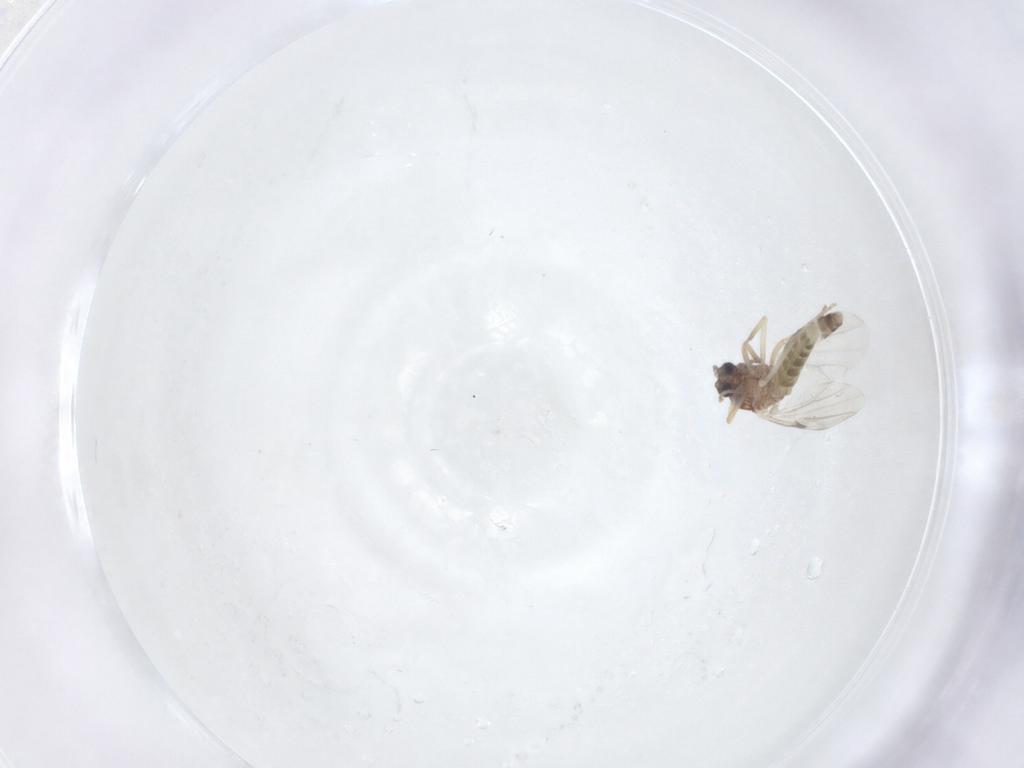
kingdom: Animalia
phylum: Arthropoda
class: Insecta
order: Diptera
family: Ceratopogonidae
